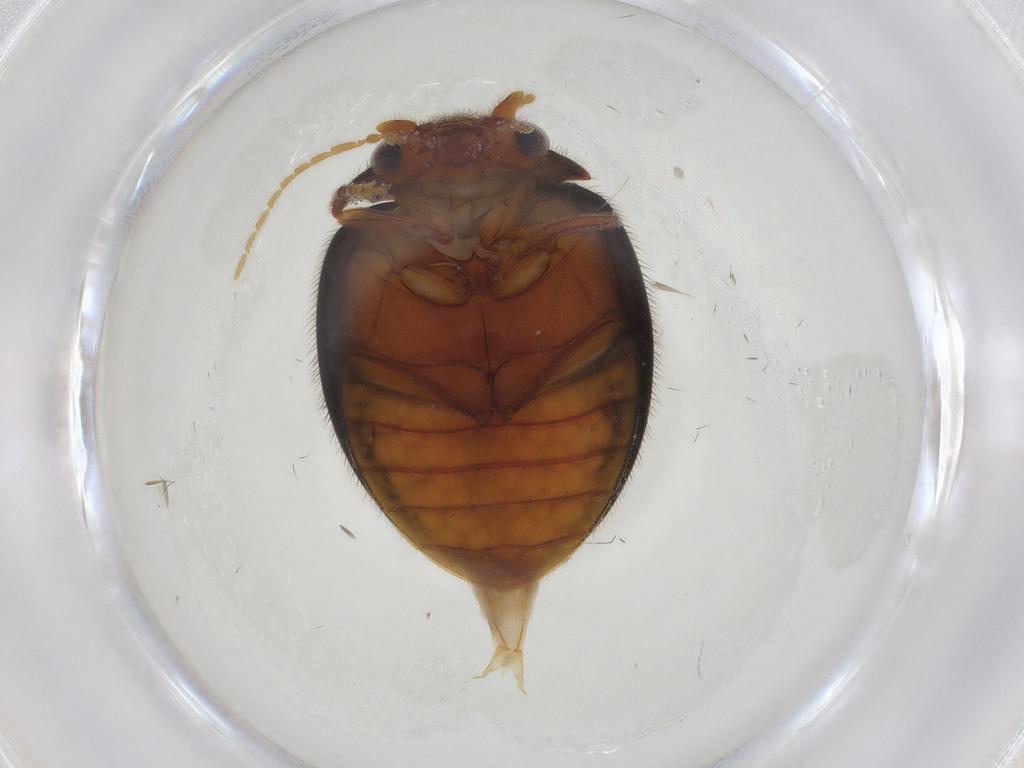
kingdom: Animalia
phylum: Arthropoda
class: Insecta
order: Coleoptera
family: Scirtidae
